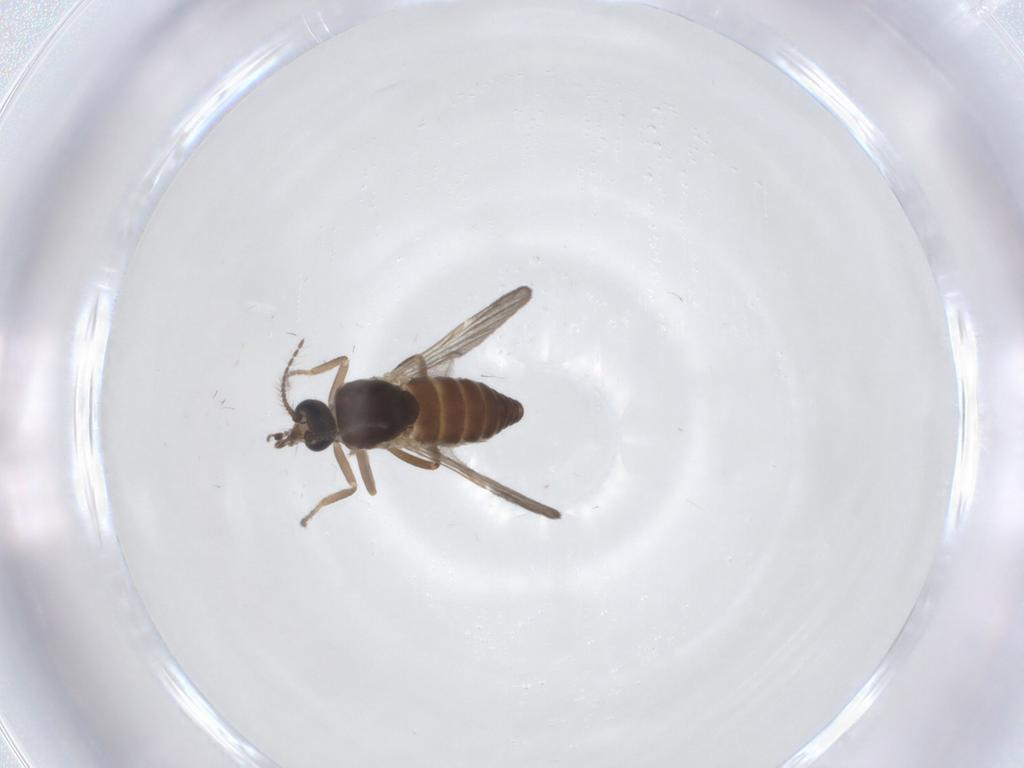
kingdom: Animalia
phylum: Arthropoda
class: Insecta
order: Diptera
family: Ceratopogonidae
